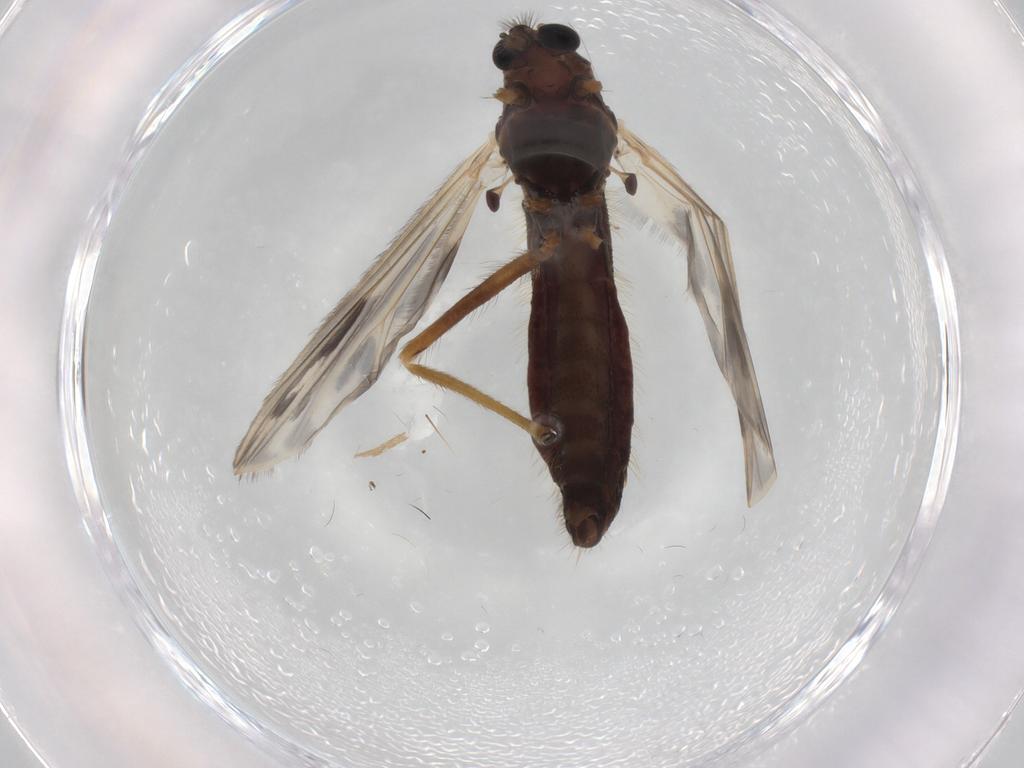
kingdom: Animalia
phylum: Arthropoda
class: Insecta
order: Diptera
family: Chironomidae
